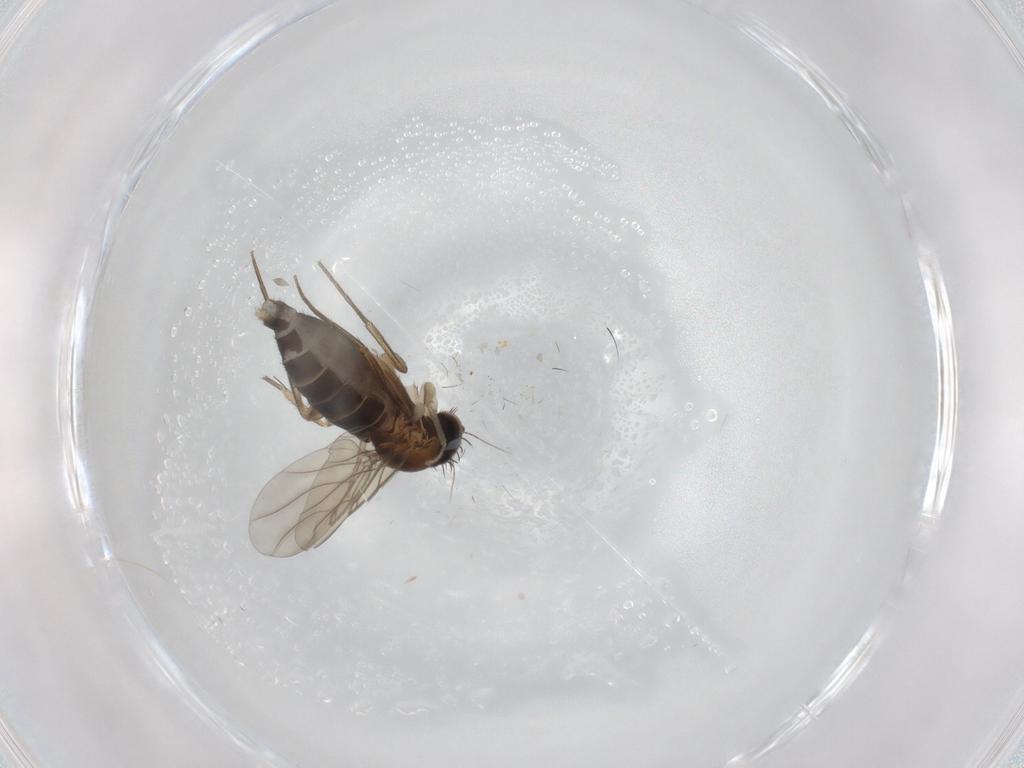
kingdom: Animalia
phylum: Arthropoda
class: Insecta
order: Diptera
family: Phoridae
